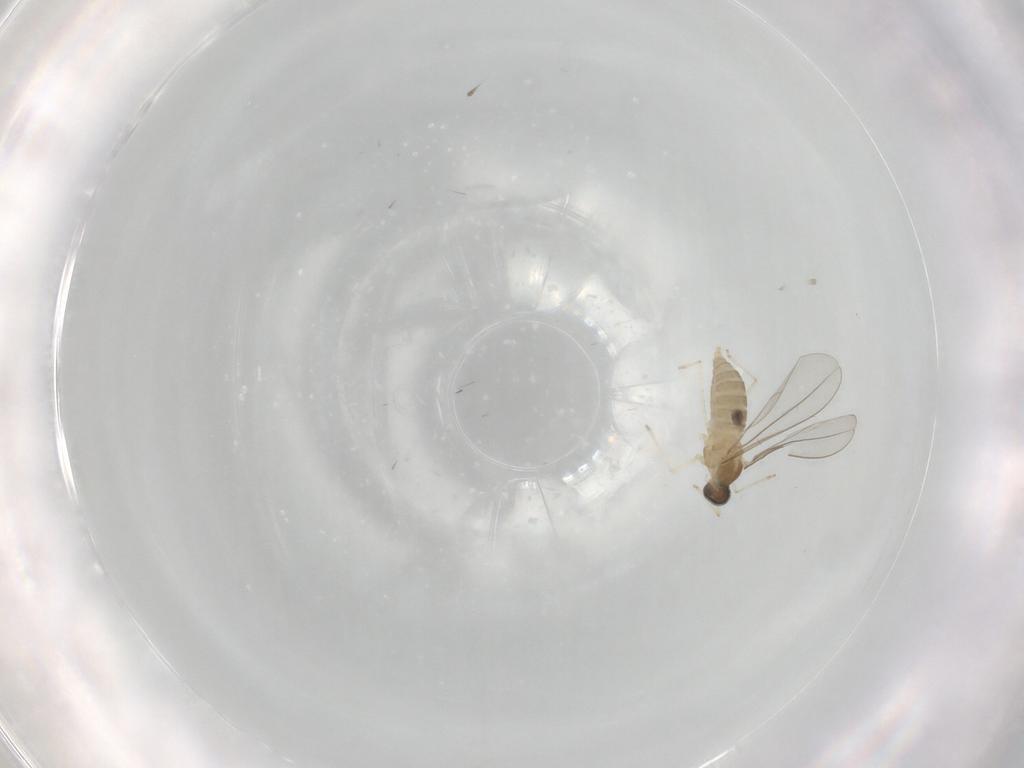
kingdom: Animalia
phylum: Arthropoda
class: Insecta
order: Diptera
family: Cecidomyiidae
